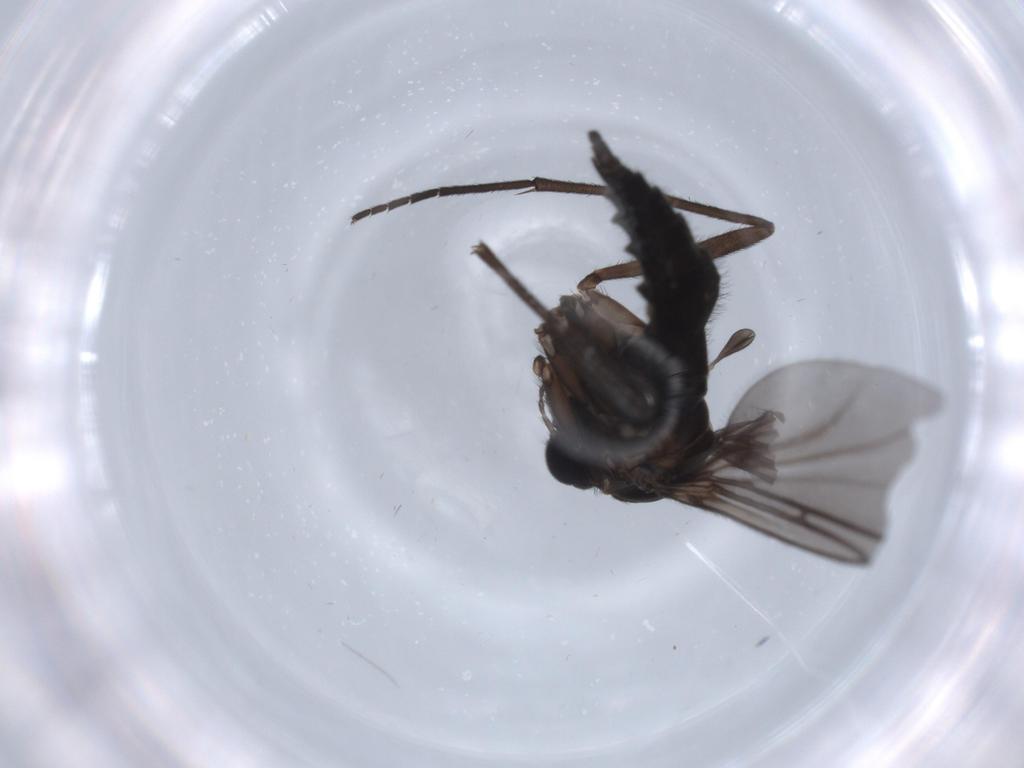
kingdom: Animalia
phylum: Arthropoda
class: Insecta
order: Diptera
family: Sciaridae
